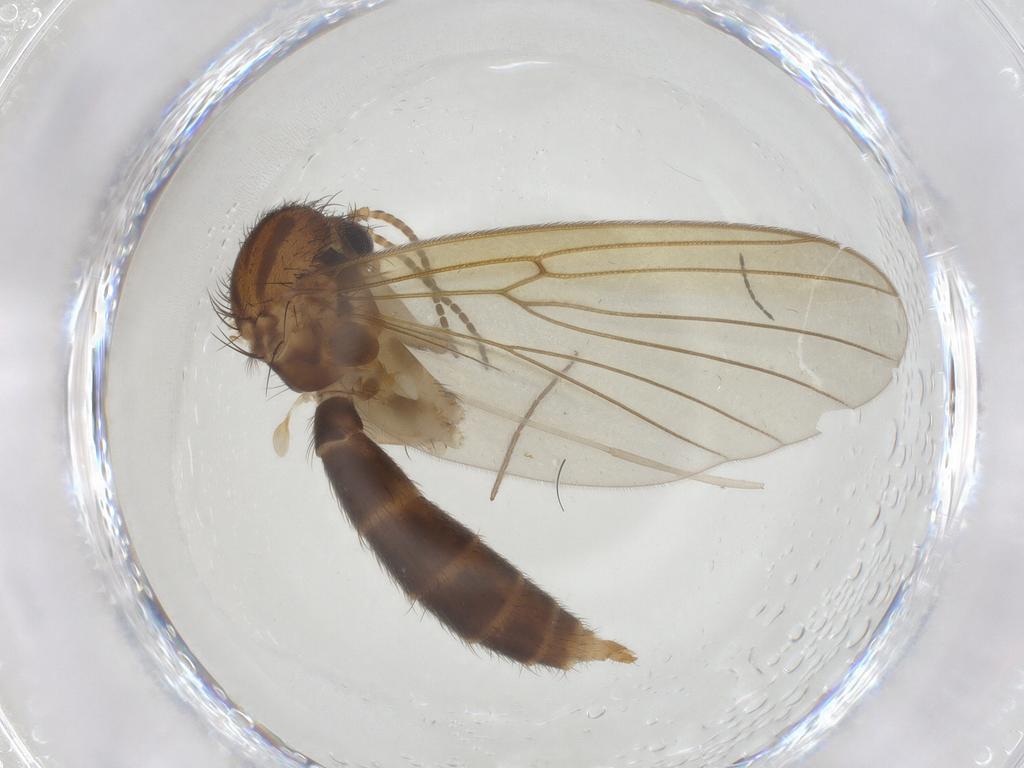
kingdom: Animalia
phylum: Arthropoda
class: Insecta
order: Diptera
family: Mycetophilidae
